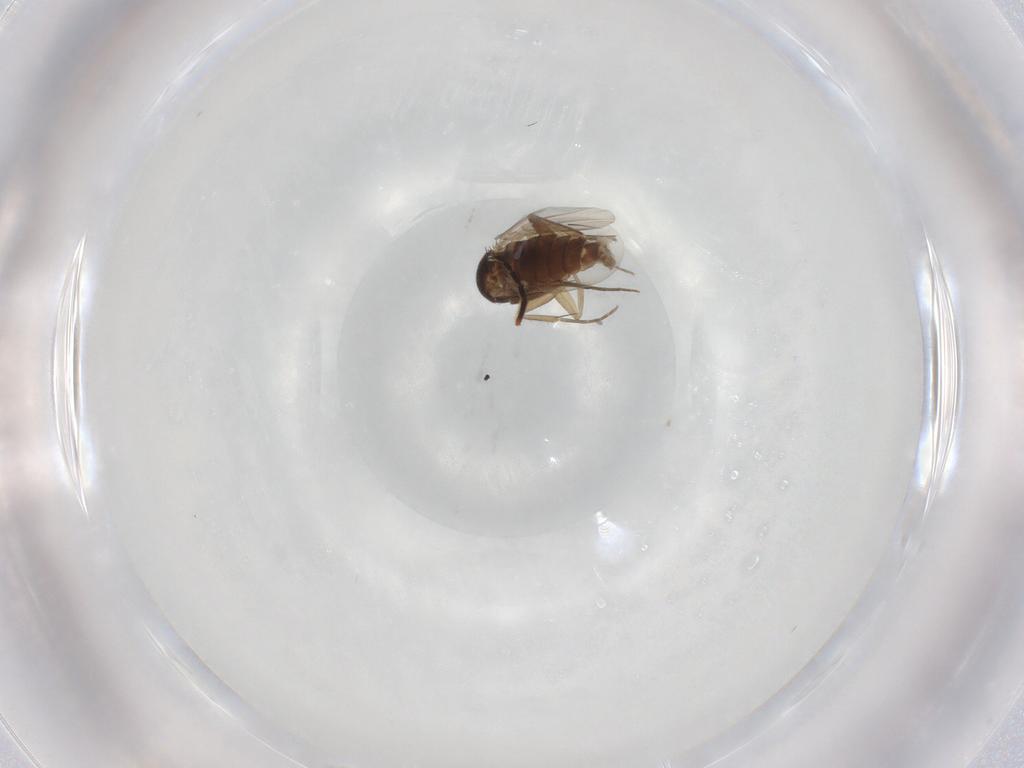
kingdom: Animalia
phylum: Arthropoda
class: Insecta
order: Diptera
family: Hybotidae
